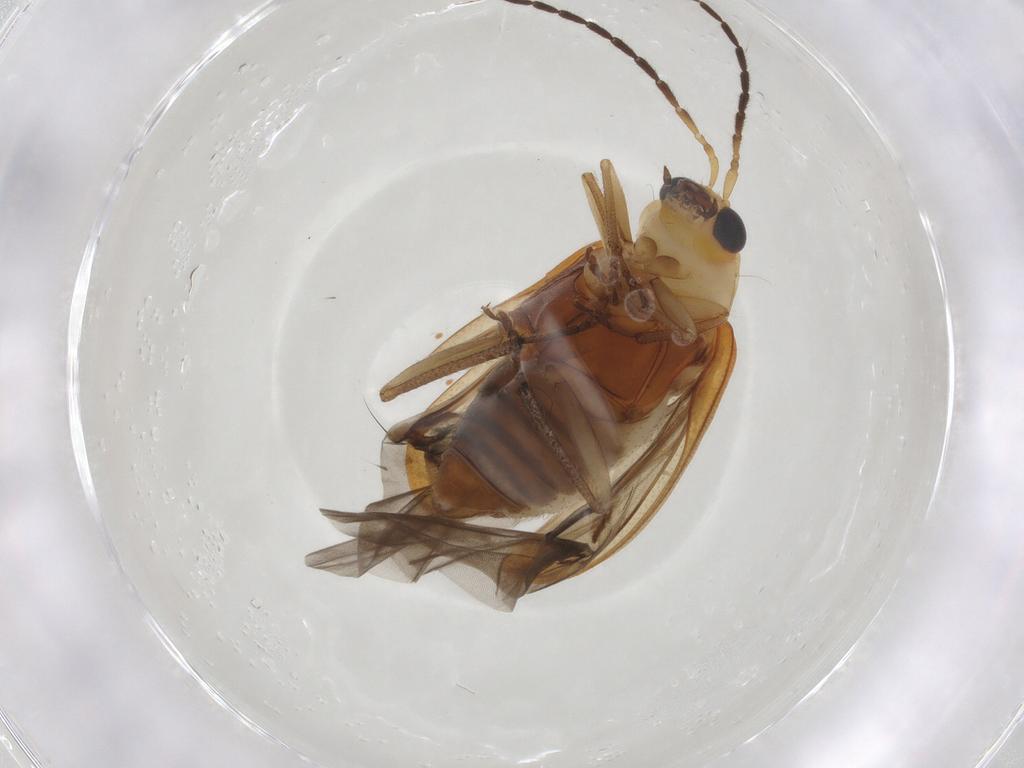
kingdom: Animalia
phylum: Arthropoda
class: Insecta
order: Coleoptera
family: Chrysomelidae
